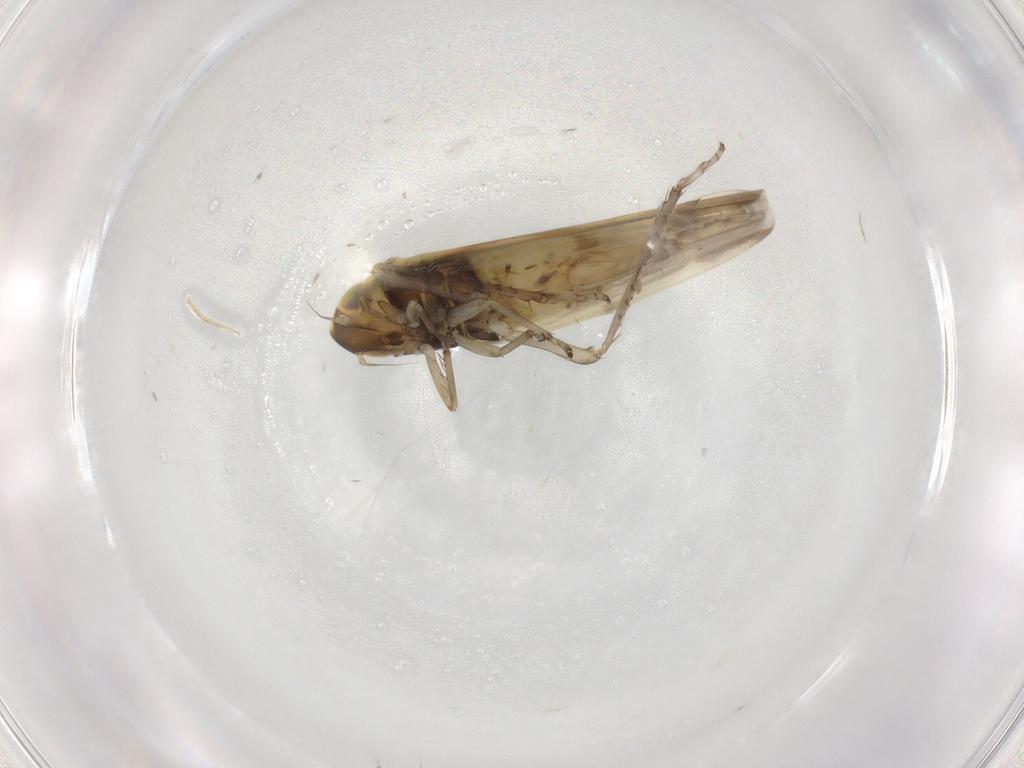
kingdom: Animalia
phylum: Arthropoda
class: Insecta
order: Hemiptera
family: Cicadellidae
